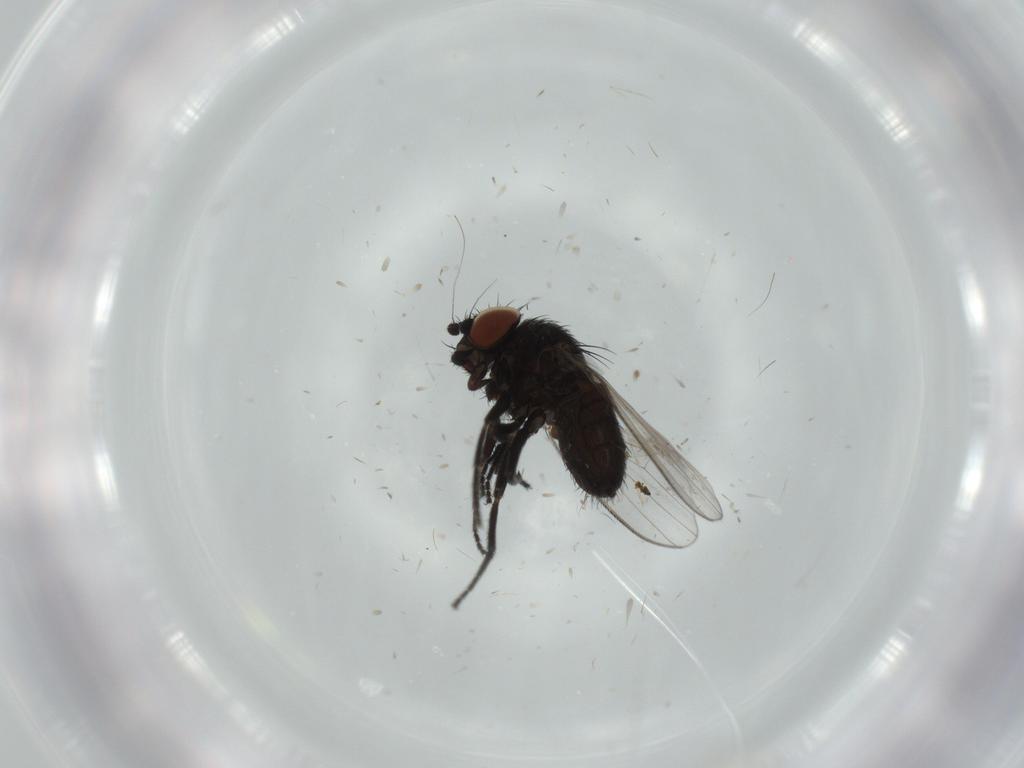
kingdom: Animalia
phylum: Arthropoda
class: Insecta
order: Diptera
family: Milichiidae
